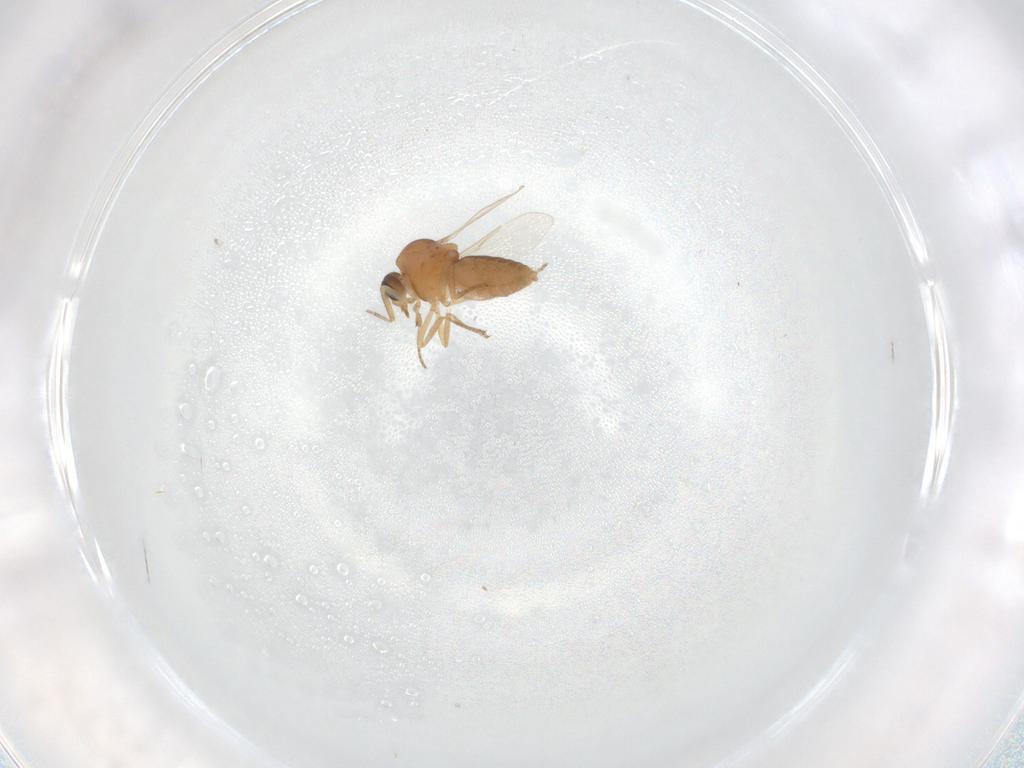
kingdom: Animalia
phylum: Arthropoda
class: Insecta
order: Diptera
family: Ceratopogonidae
